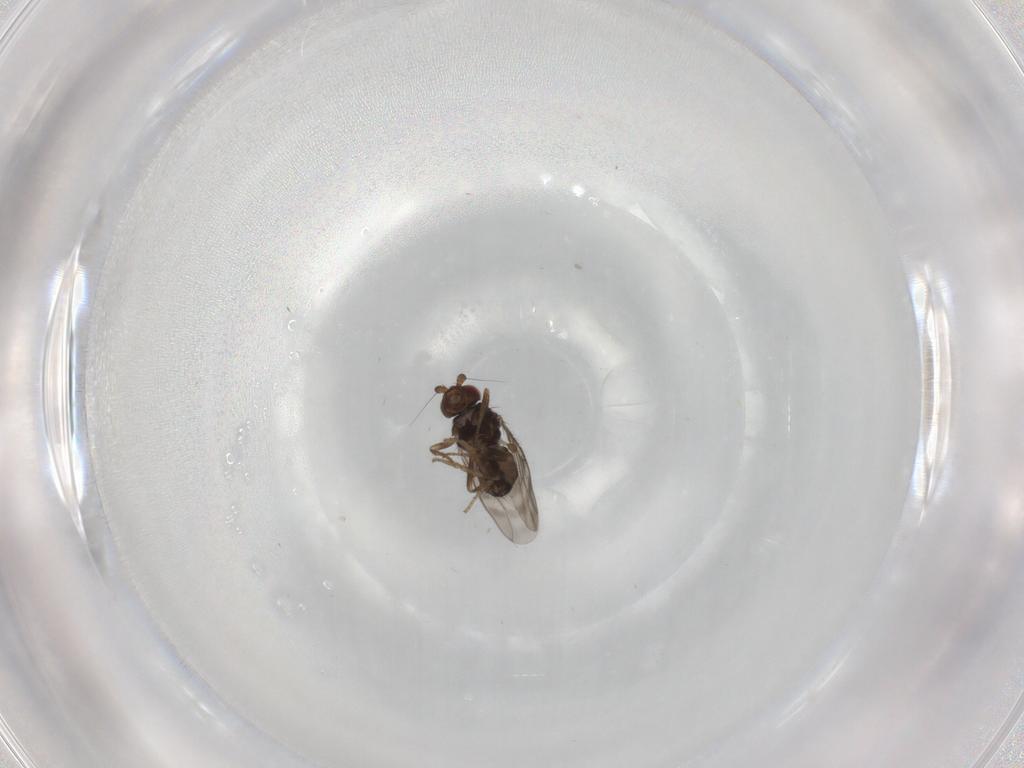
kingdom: Animalia
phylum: Arthropoda
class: Insecta
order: Diptera
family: Sphaeroceridae
